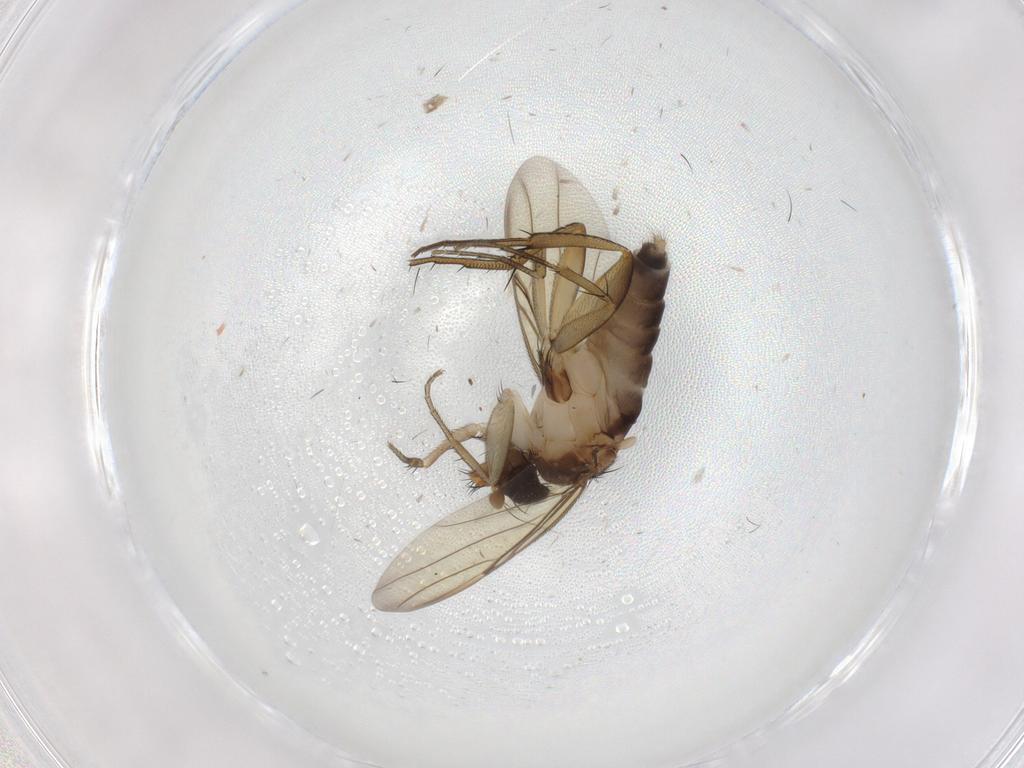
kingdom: Animalia
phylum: Arthropoda
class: Insecta
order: Diptera
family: Phoridae
